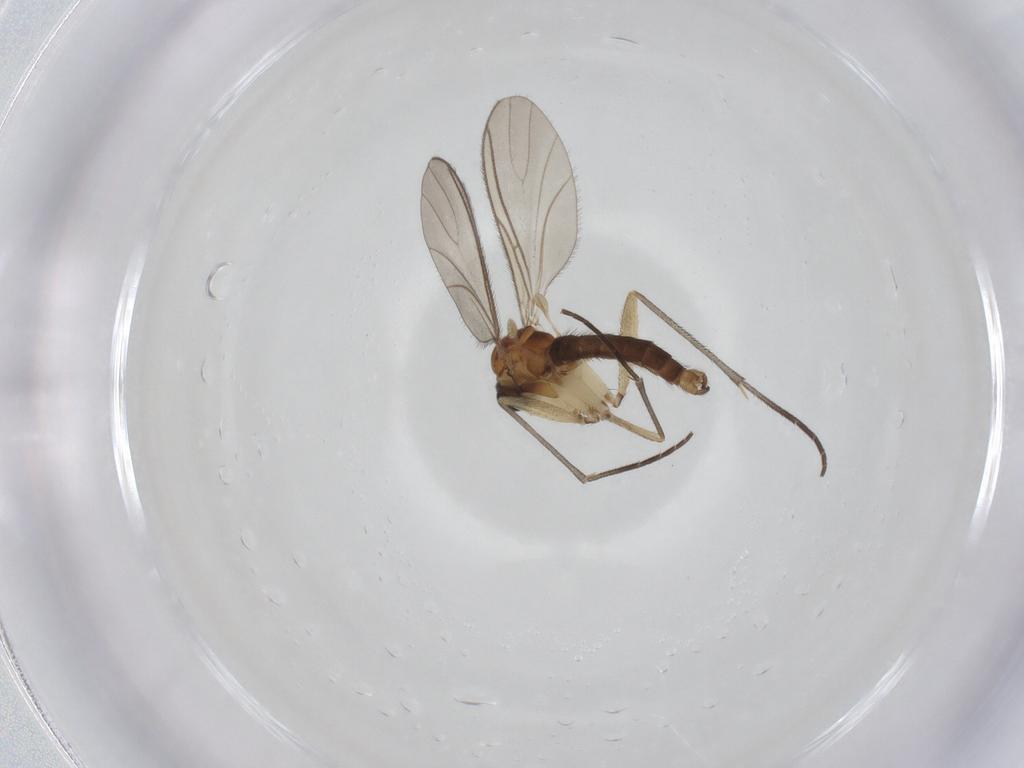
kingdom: Animalia
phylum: Arthropoda
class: Insecta
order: Diptera
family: Sciaridae
